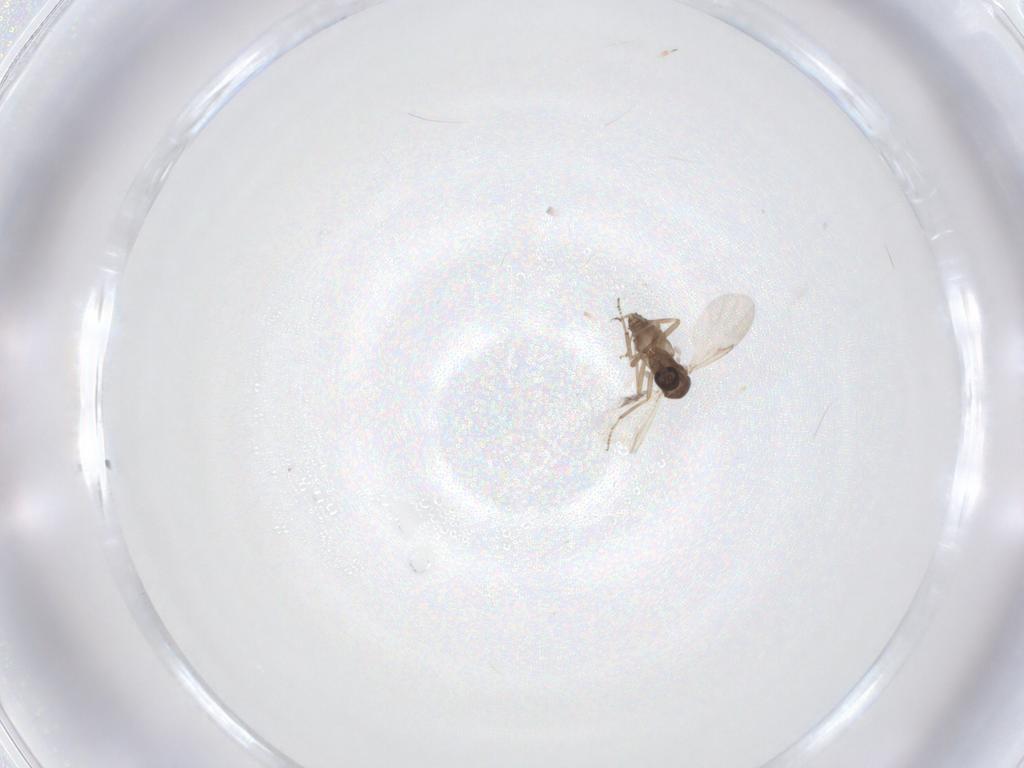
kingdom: Animalia
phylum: Arthropoda
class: Insecta
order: Diptera
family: Ceratopogonidae
